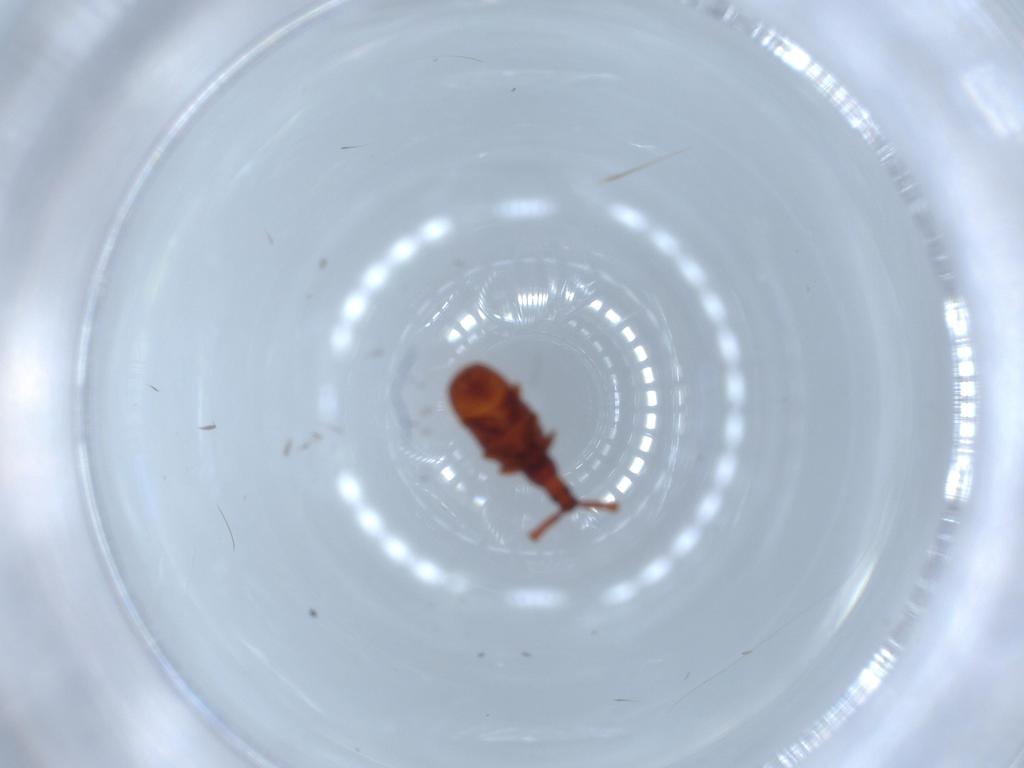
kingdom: Animalia
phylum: Arthropoda
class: Insecta
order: Coleoptera
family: Staphylinidae
